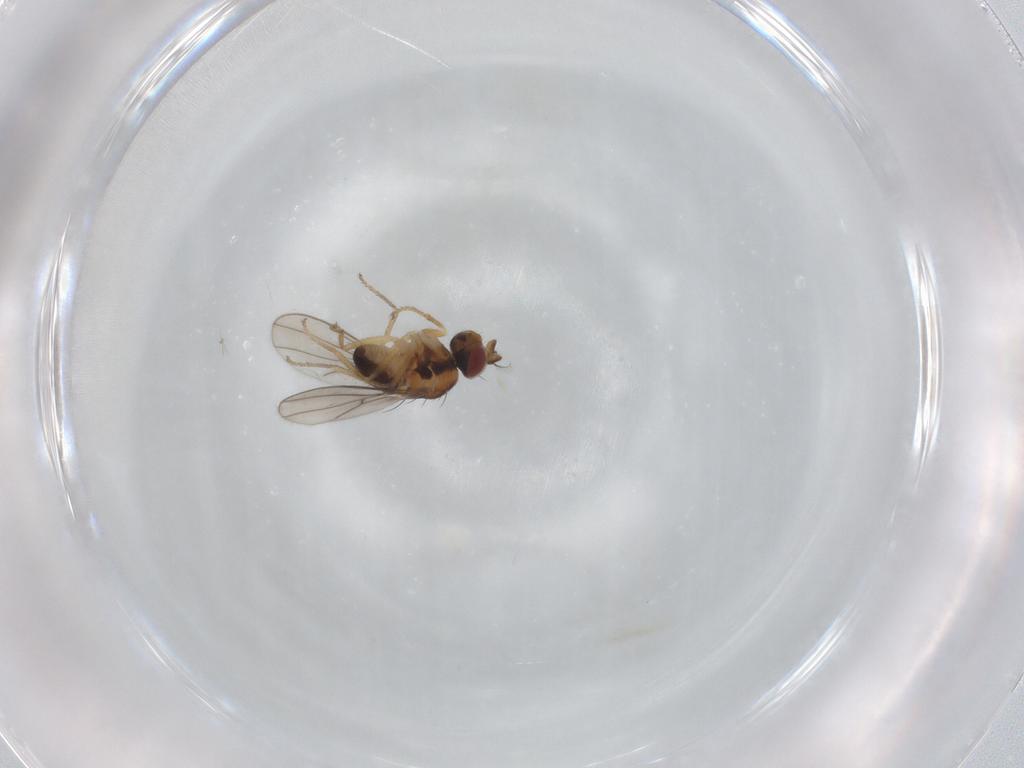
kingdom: Animalia
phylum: Arthropoda
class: Insecta
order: Diptera
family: Ephydridae
